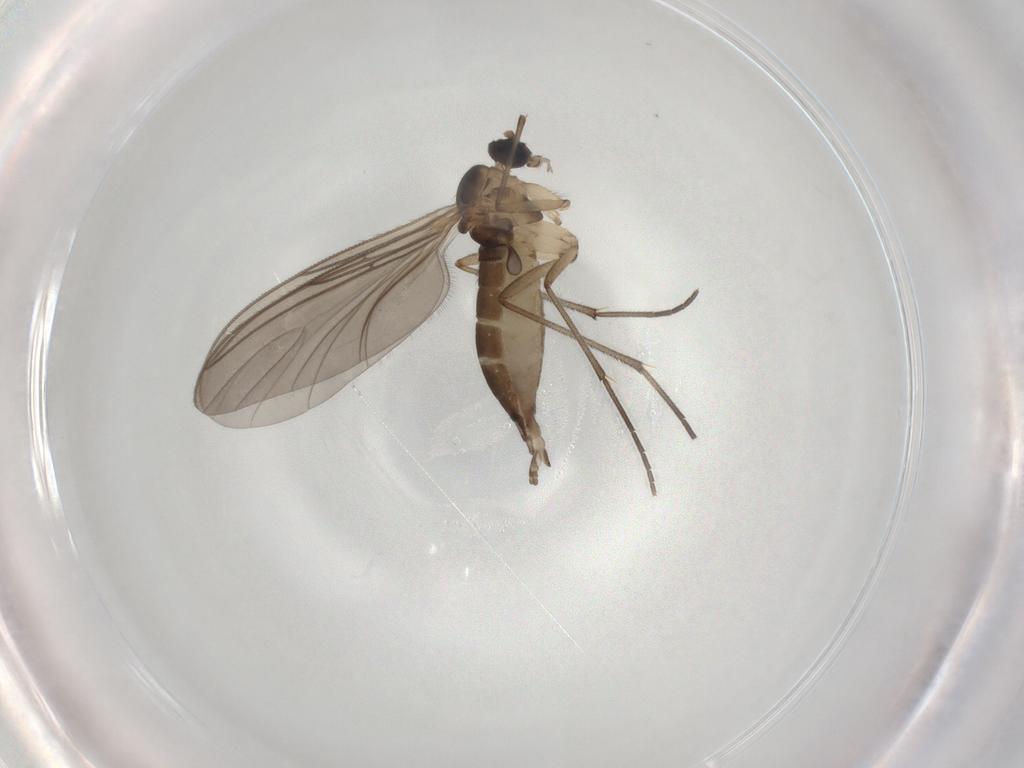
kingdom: Animalia
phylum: Arthropoda
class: Insecta
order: Diptera
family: Sciaridae
